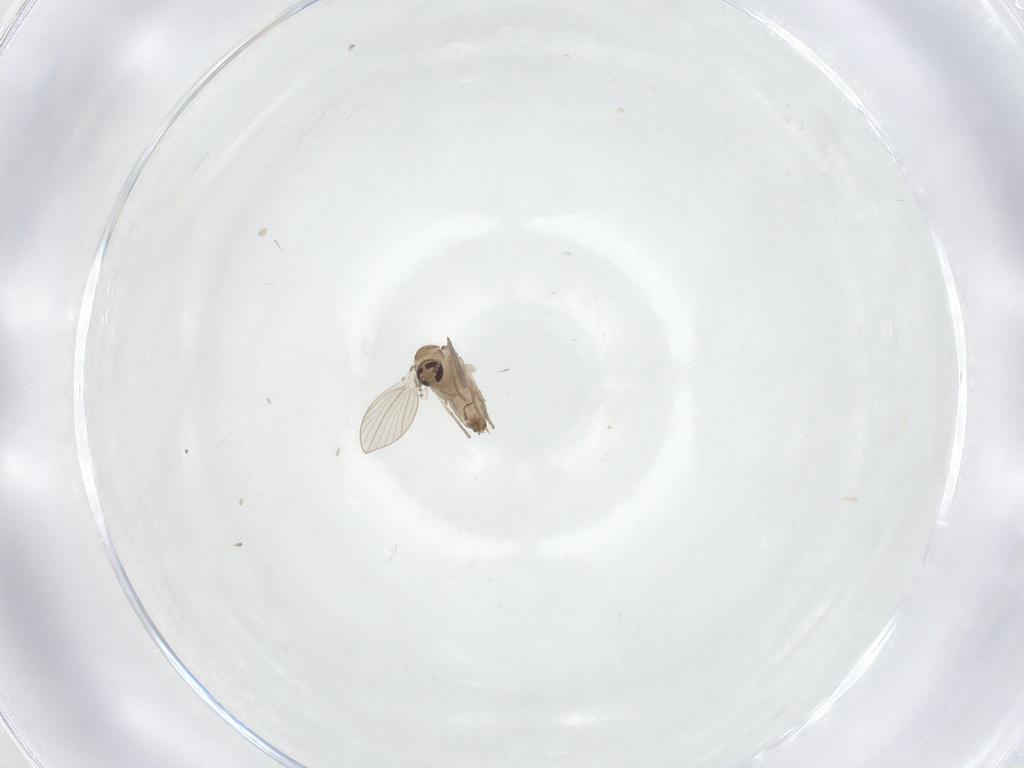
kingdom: Animalia
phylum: Arthropoda
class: Insecta
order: Diptera
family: Psychodidae
